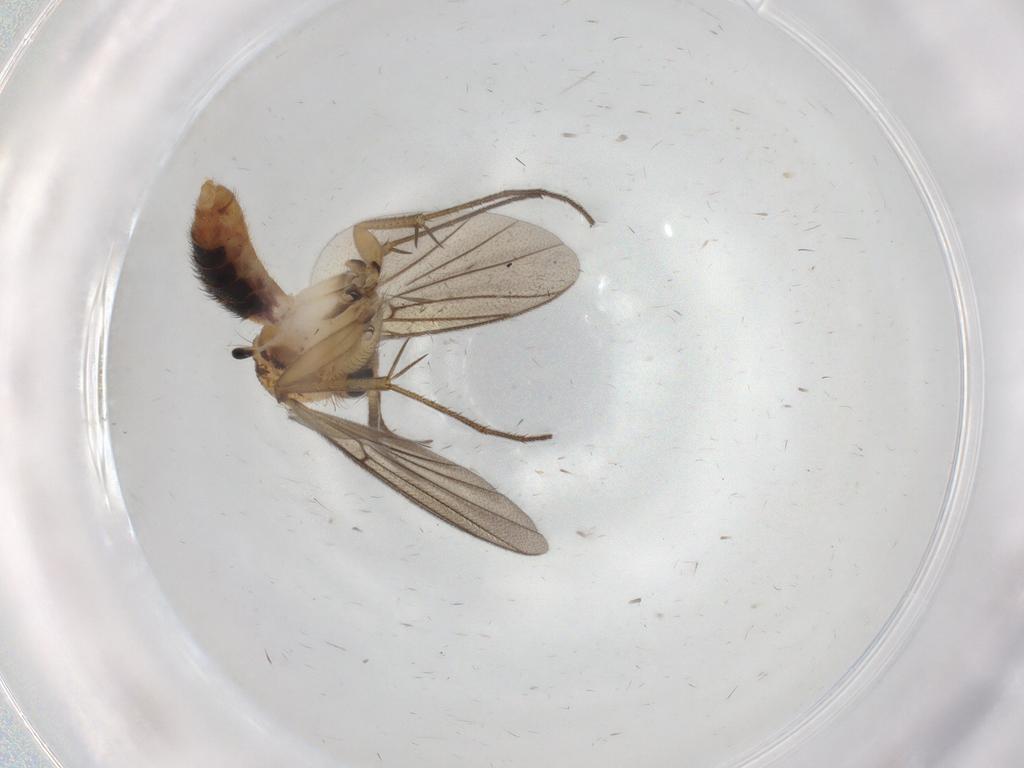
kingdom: Animalia
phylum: Arthropoda
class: Insecta
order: Diptera
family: Mycetophilidae
